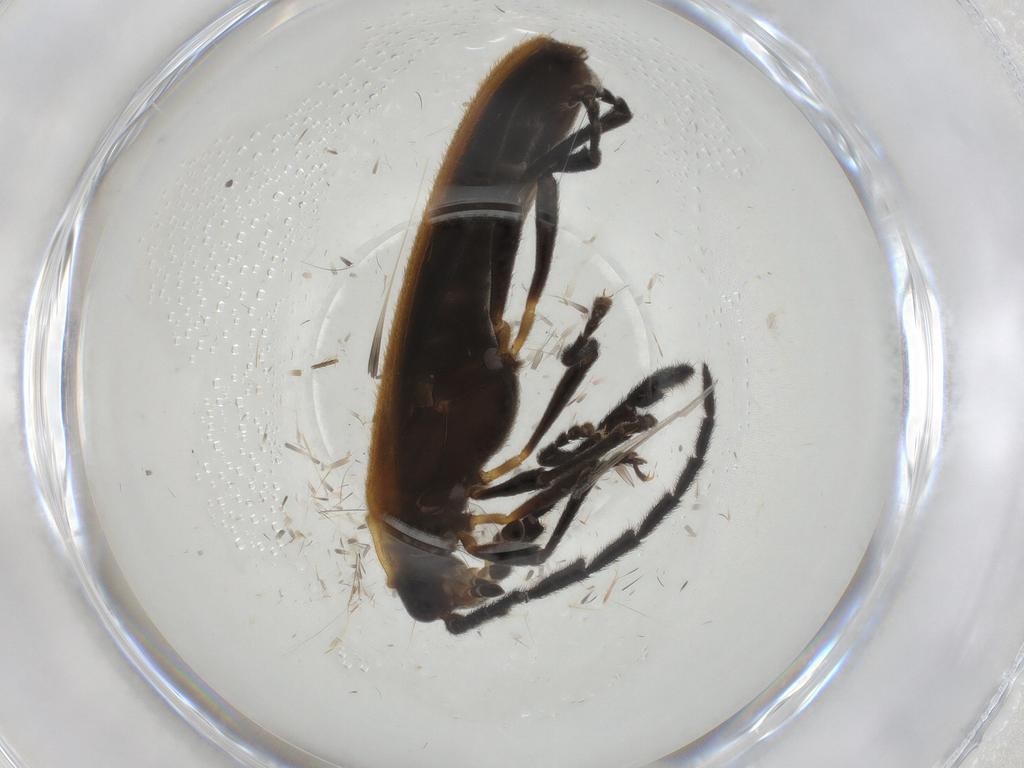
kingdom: Animalia
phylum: Arthropoda
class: Insecta
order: Coleoptera
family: Lycidae
